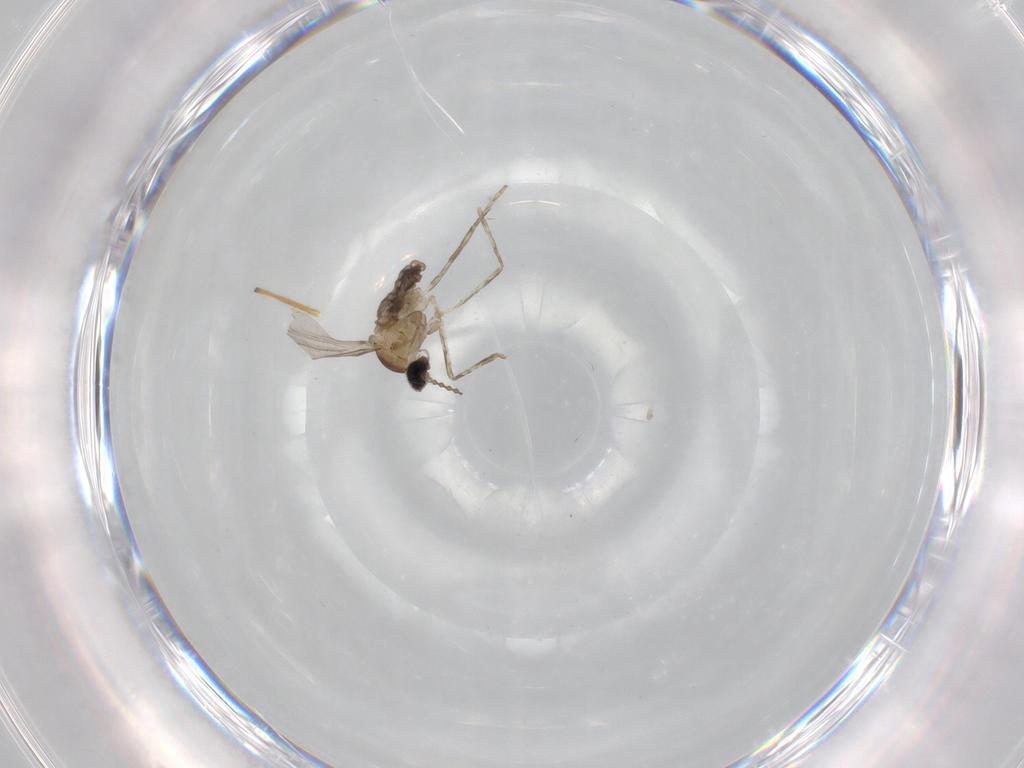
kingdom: Animalia
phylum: Arthropoda
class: Insecta
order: Diptera
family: Cecidomyiidae
